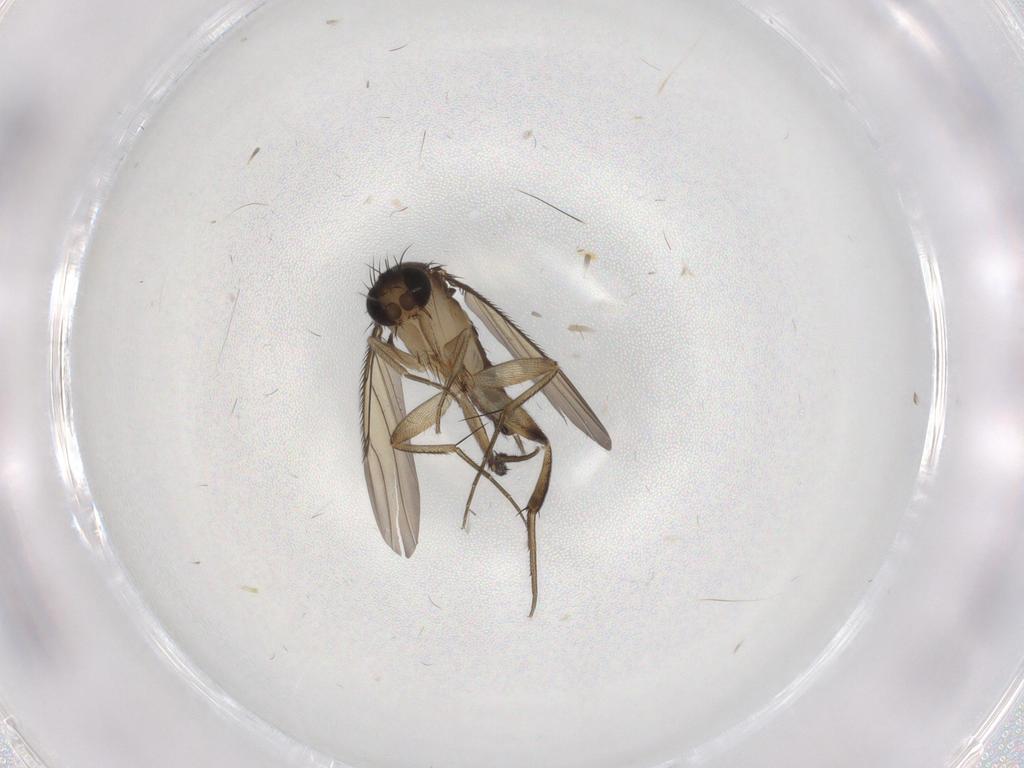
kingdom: Animalia
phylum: Arthropoda
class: Insecta
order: Diptera
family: Phoridae
